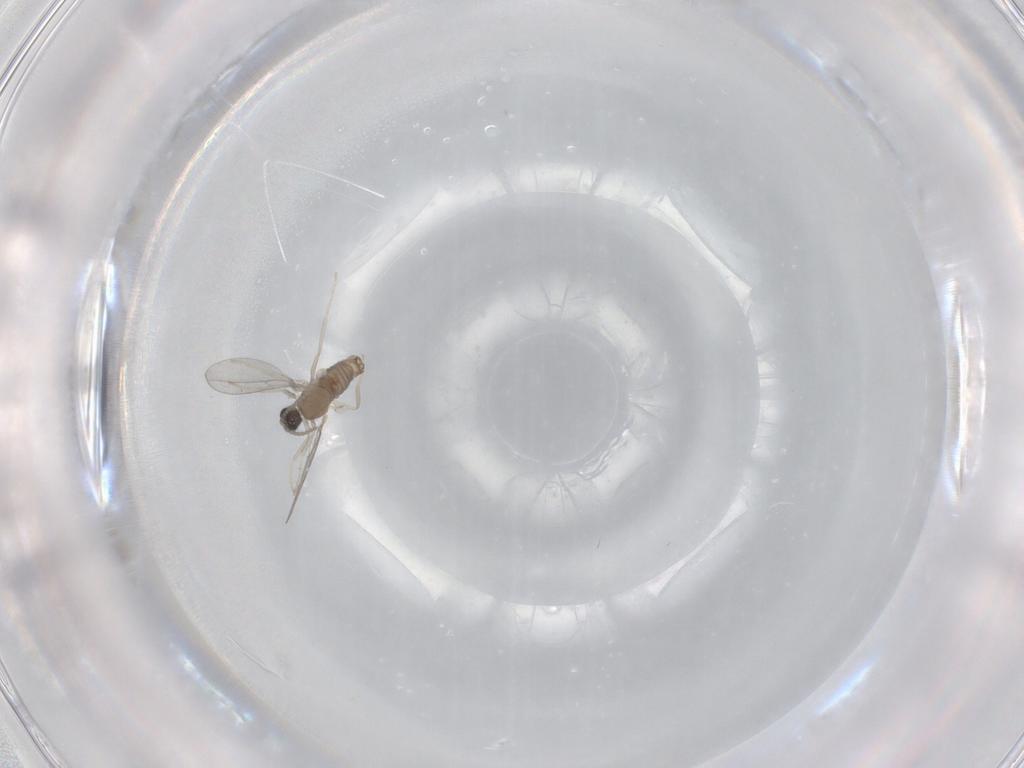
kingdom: Animalia
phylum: Arthropoda
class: Insecta
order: Diptera
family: Cecidomyiidae
